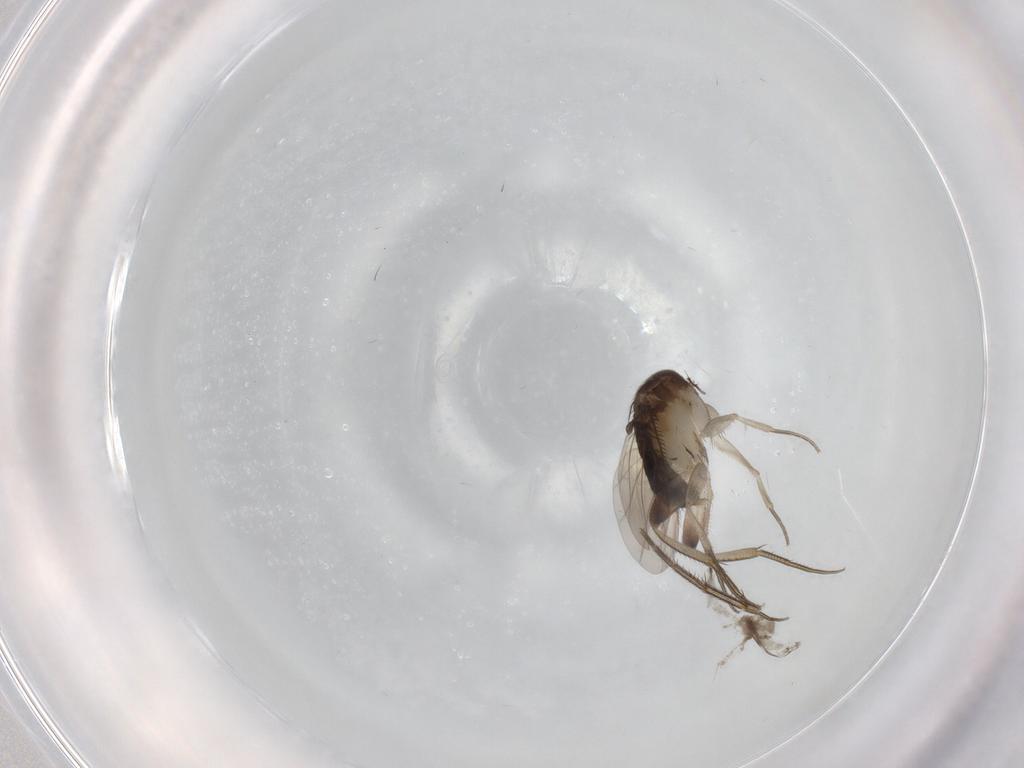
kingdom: Animalia
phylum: Arthropoda
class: Insecta
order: Diptera
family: Phoridae
